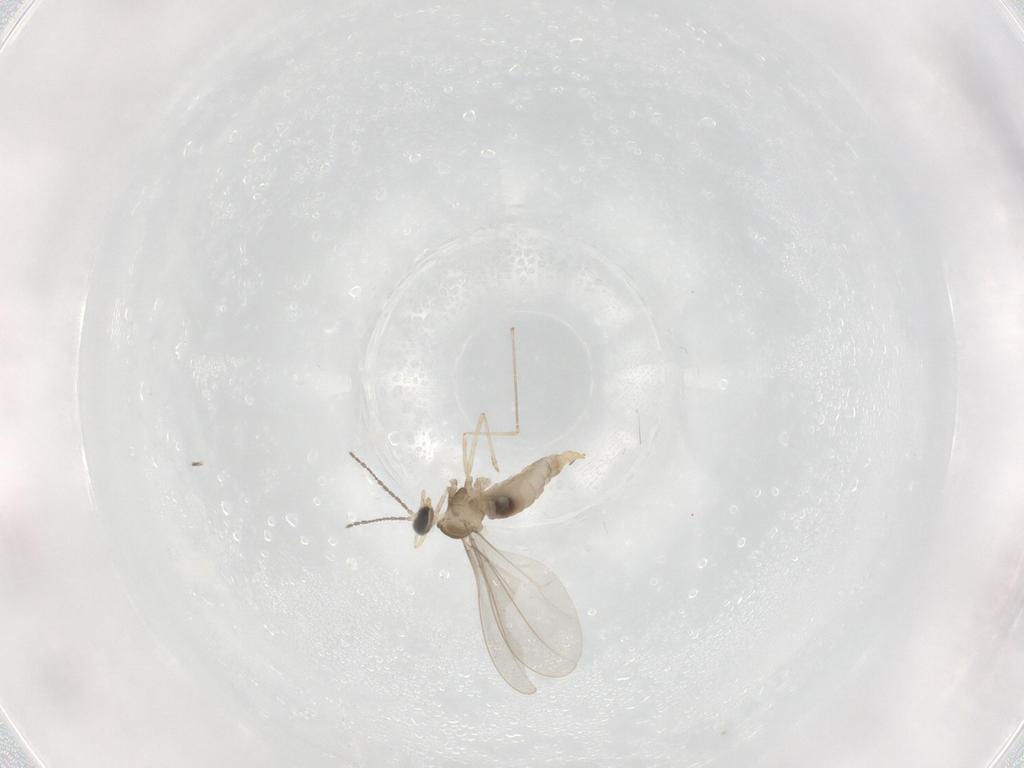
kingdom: Animalia
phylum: Arthropoda
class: Insecta
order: Diptera
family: Cecidomyiidae
